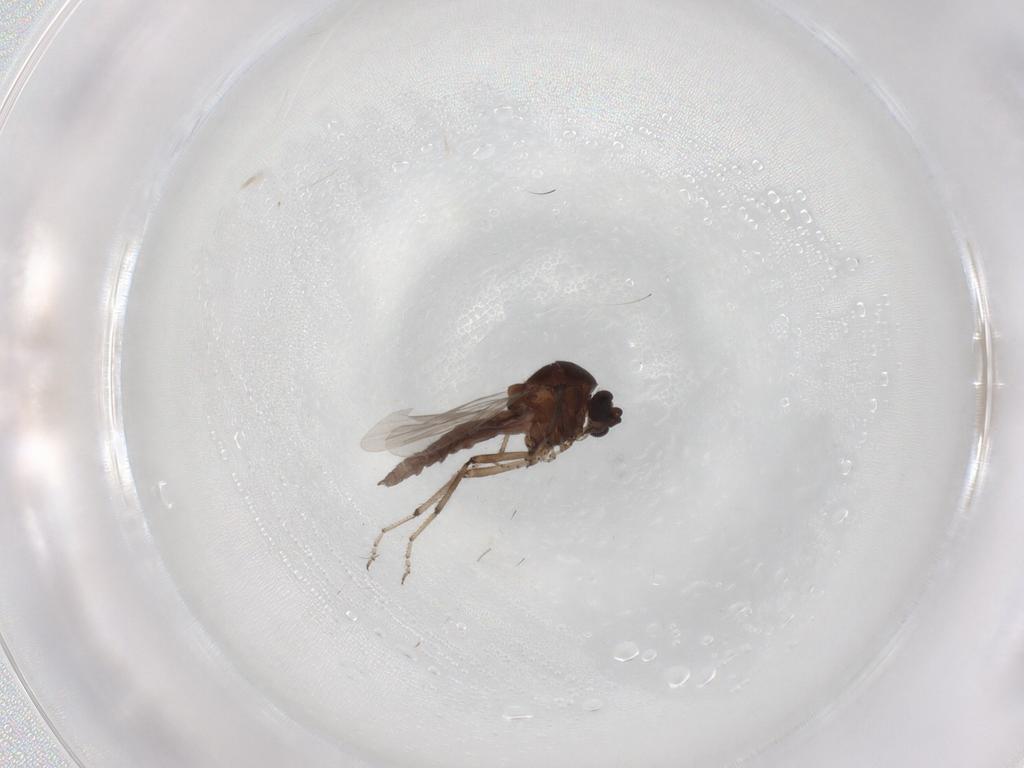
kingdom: Animalia
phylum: Arthropoda
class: Insecta
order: Diptera
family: Ceratopogonidae
